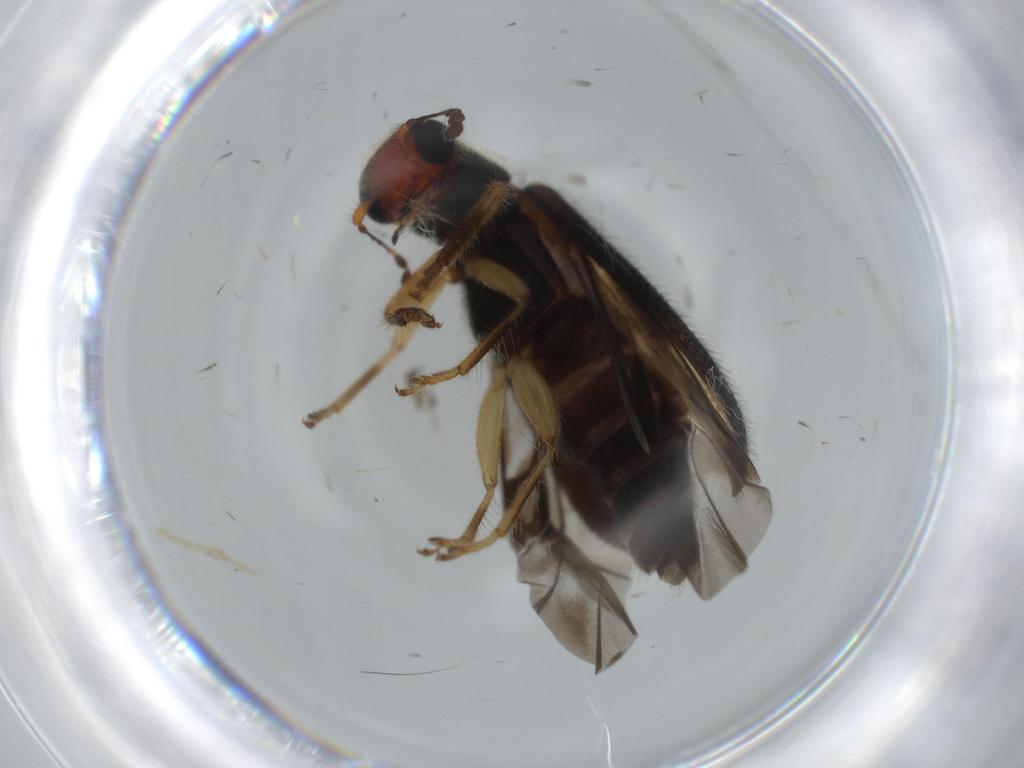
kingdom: Animalia
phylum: Arthropoda
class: Insecta
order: Coleoptera
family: Cleridae
